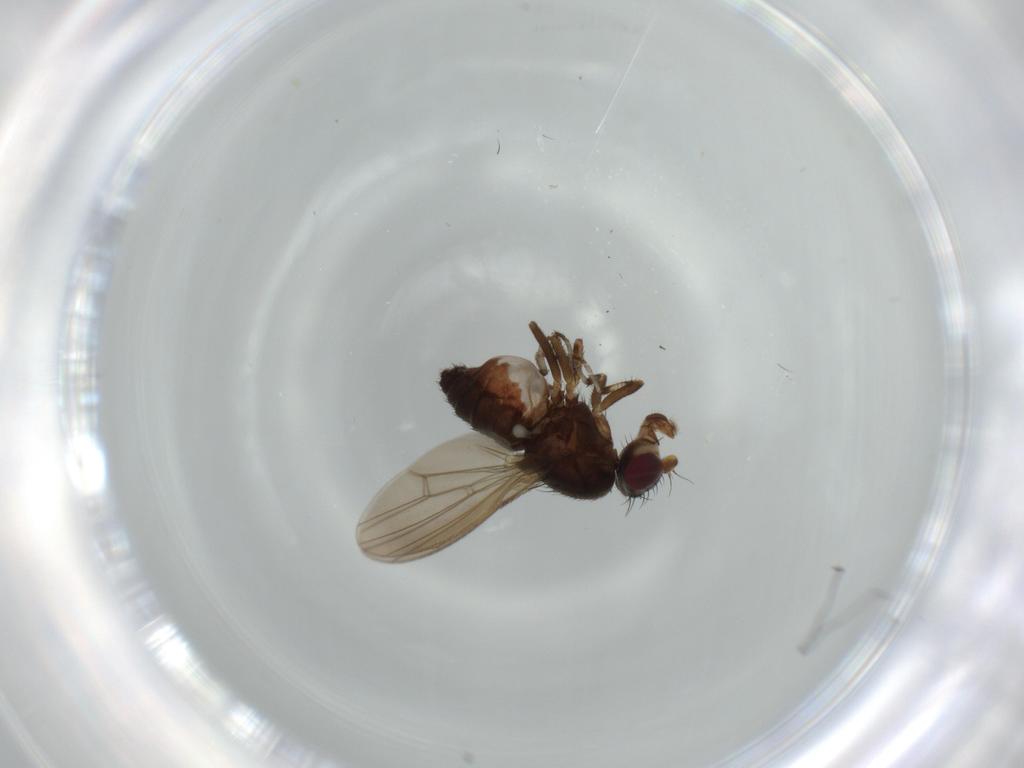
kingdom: Animalia
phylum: Arthropoda
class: Insecta
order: Diptera
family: Heleomyzidae
